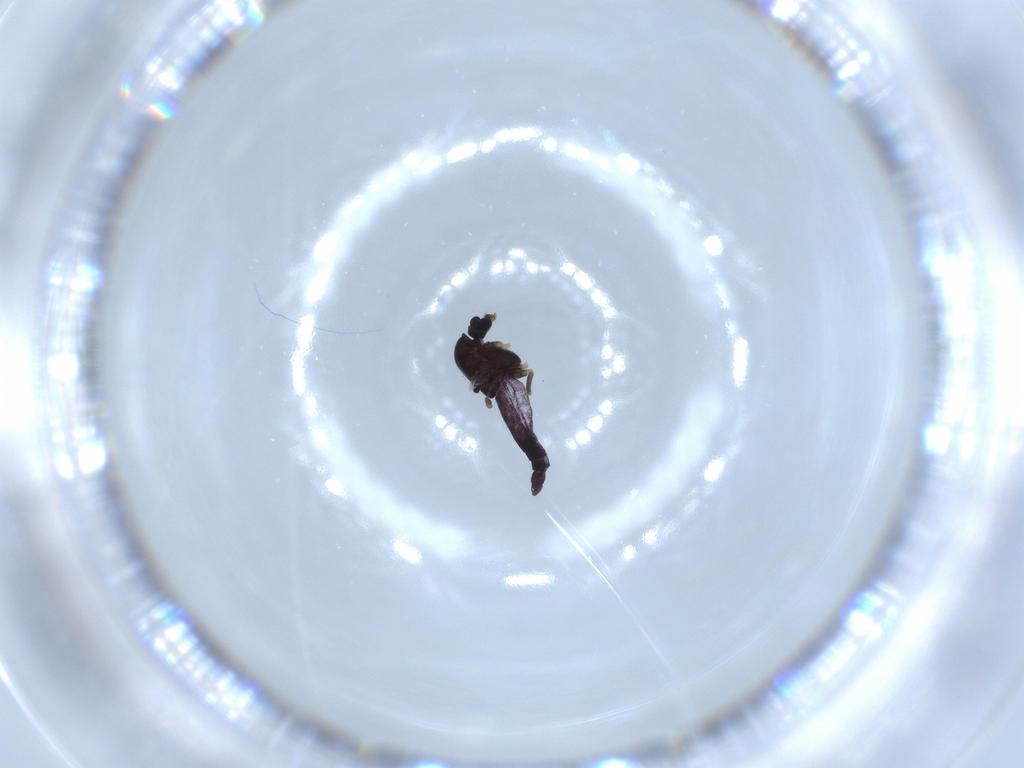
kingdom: Animalia
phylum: Arthropoda
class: Insecta
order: Diptera
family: Chironomidae
